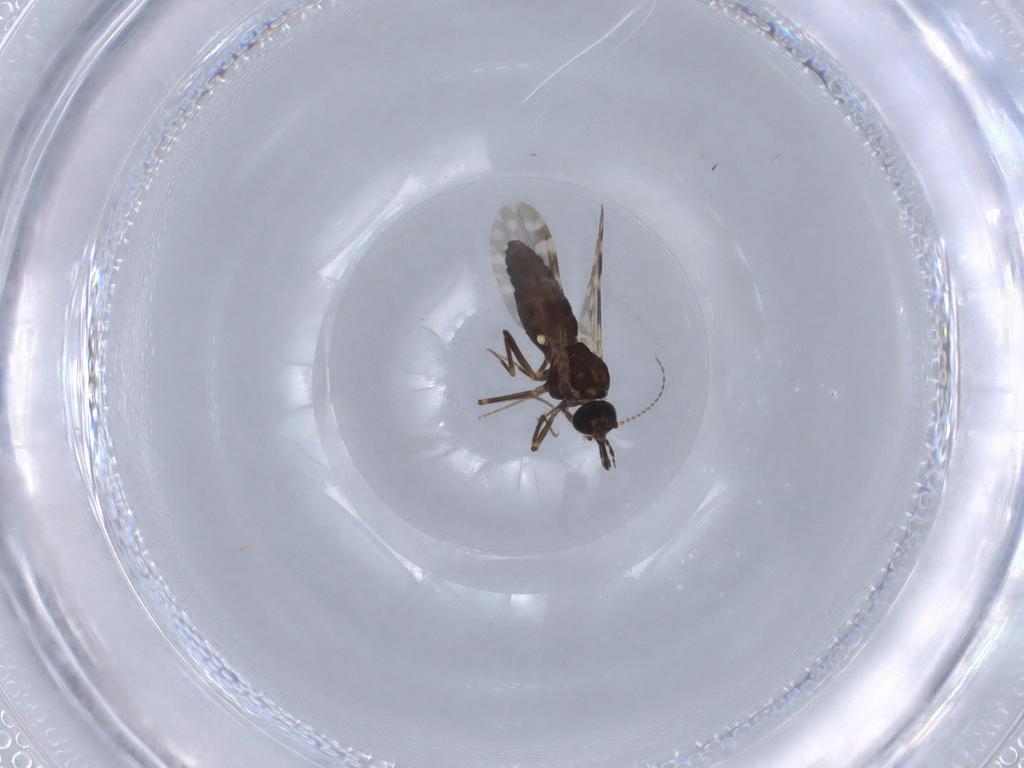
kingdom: Animalia
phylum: Arthropoda
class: Insecta
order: Diptera
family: Ceratopogonidae
